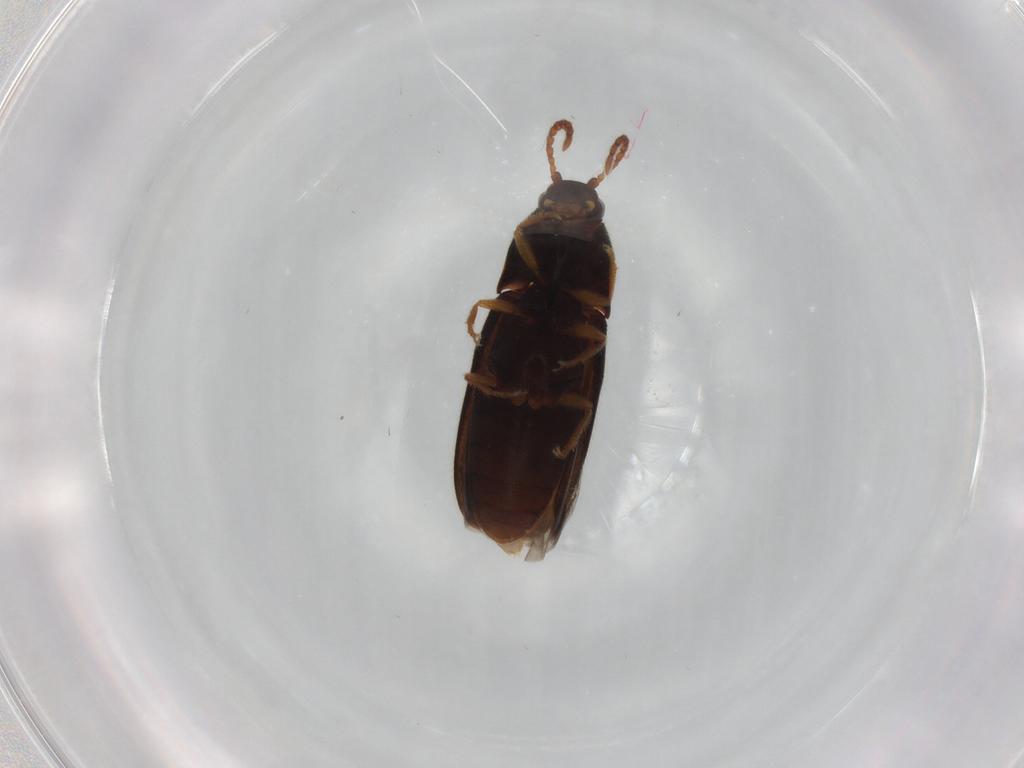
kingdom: Animalia
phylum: Arthropoda
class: Insecta
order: Coleoptera
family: Elateridae
